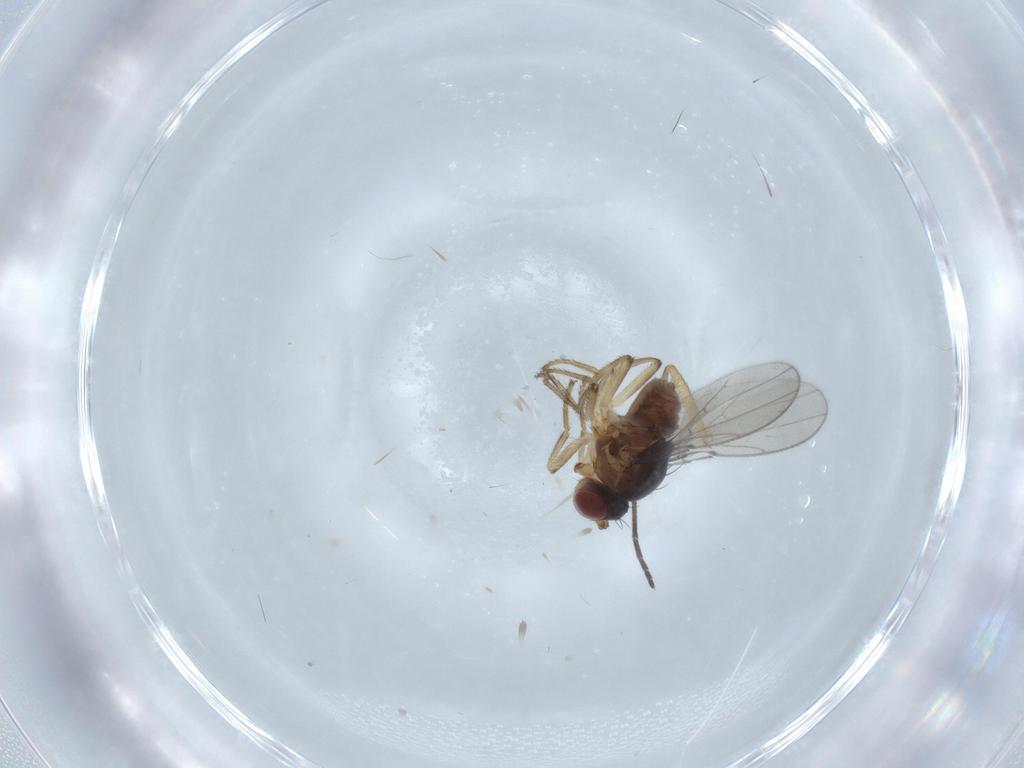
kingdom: Animalia
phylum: Arthropoda
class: Insecta
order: Diptera
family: Ephydridae
